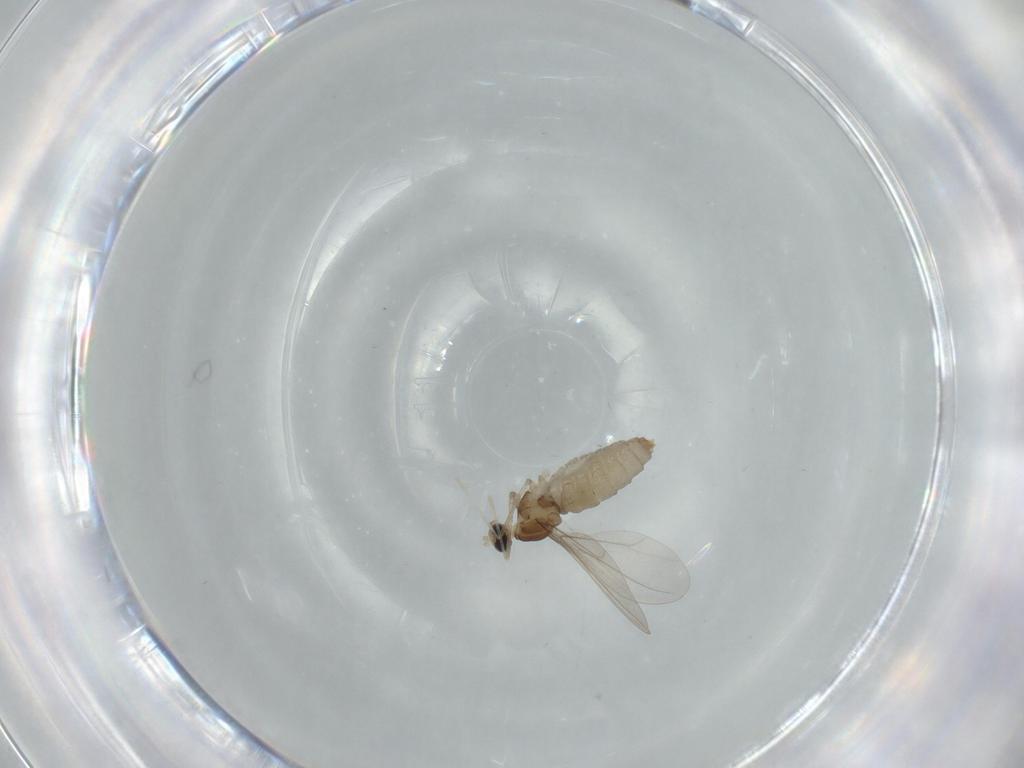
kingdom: Animalia
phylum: Arthropoda
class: Insecta
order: Diptera
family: Cecidomyiidae
